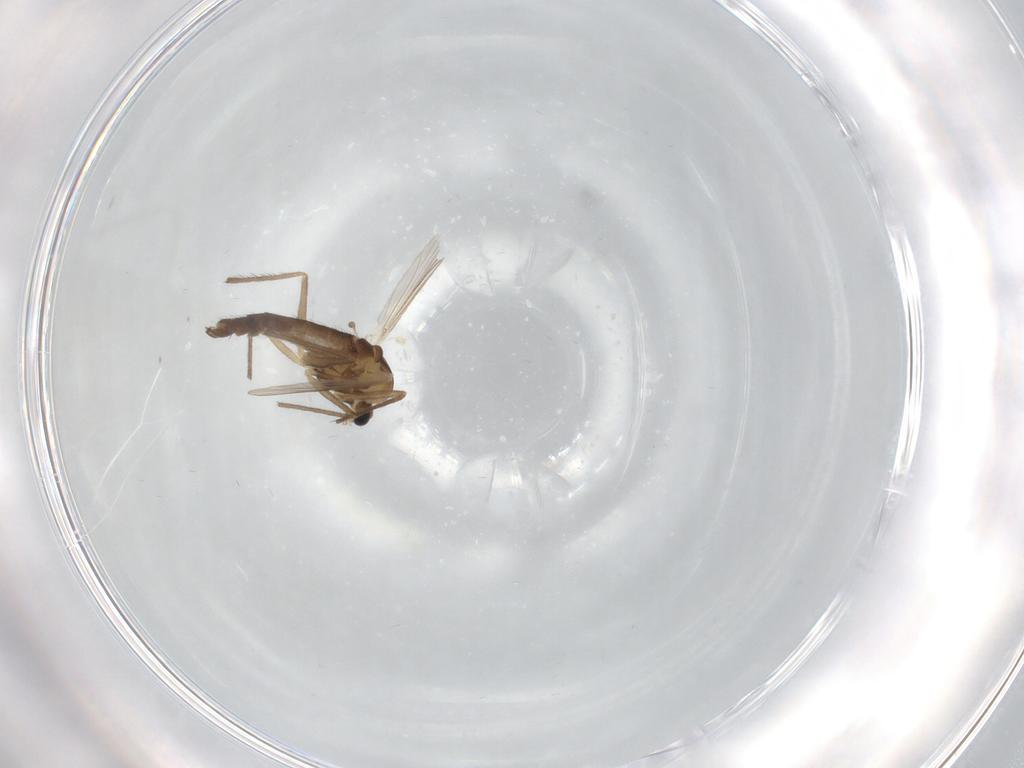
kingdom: Animalia
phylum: Arthropoda
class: Insecta
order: Diptera
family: Chironomidae
